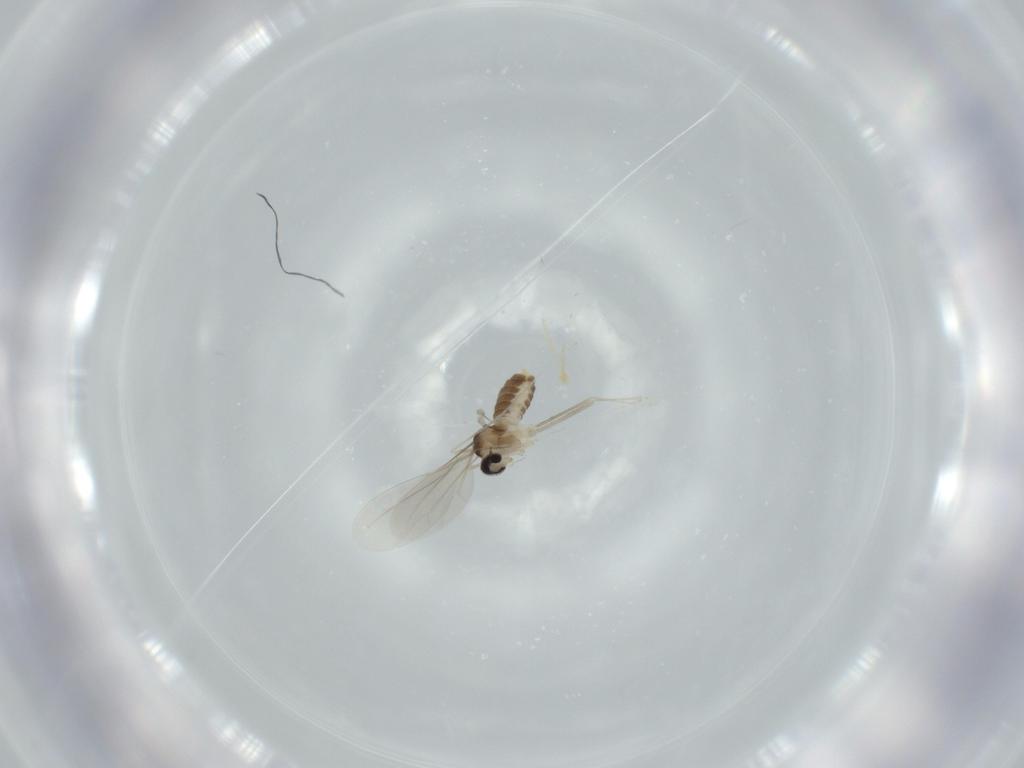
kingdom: Animalia
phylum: Arthropoda
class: Insecta
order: Diptera
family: Cecidomyiidae
